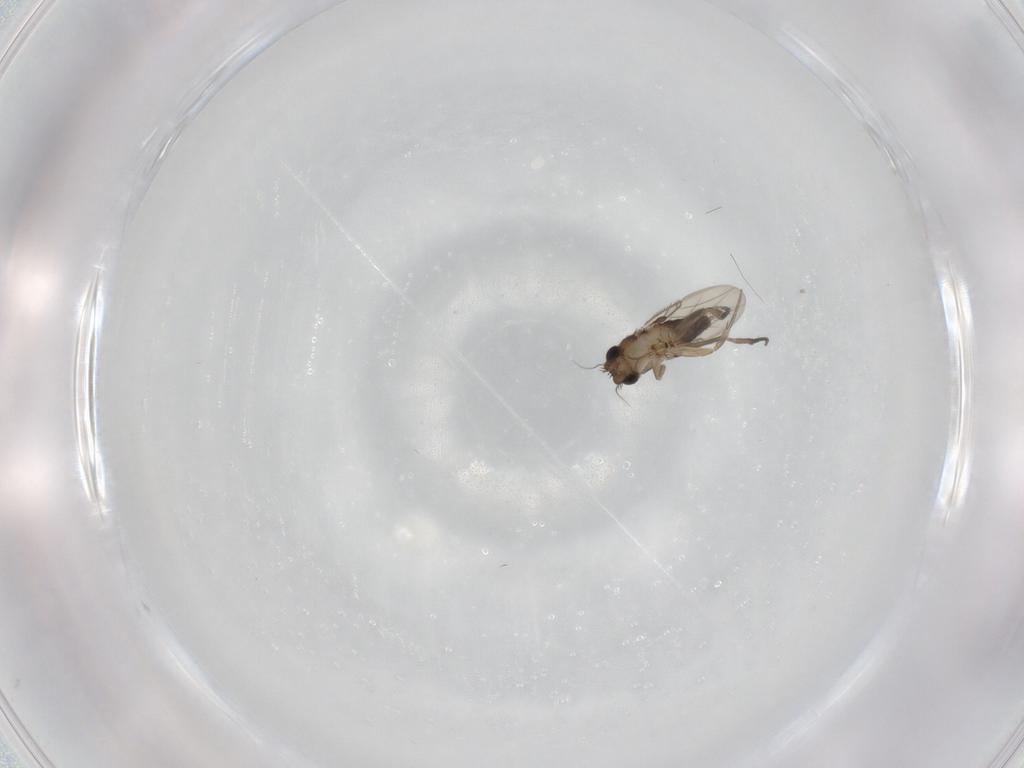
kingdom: Animalia
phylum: Arthropoda
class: Insecta
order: Diptera
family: Phoridae
